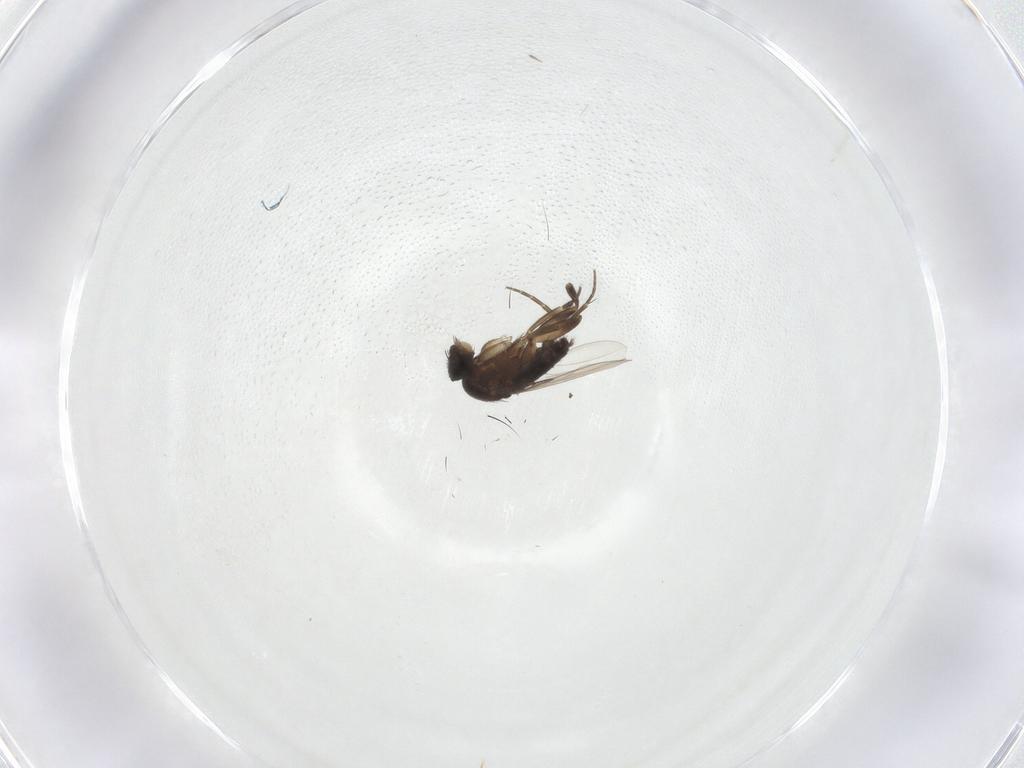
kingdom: Animalia
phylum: Arthropoda
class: Insecta
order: Diptera
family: Phoridae
